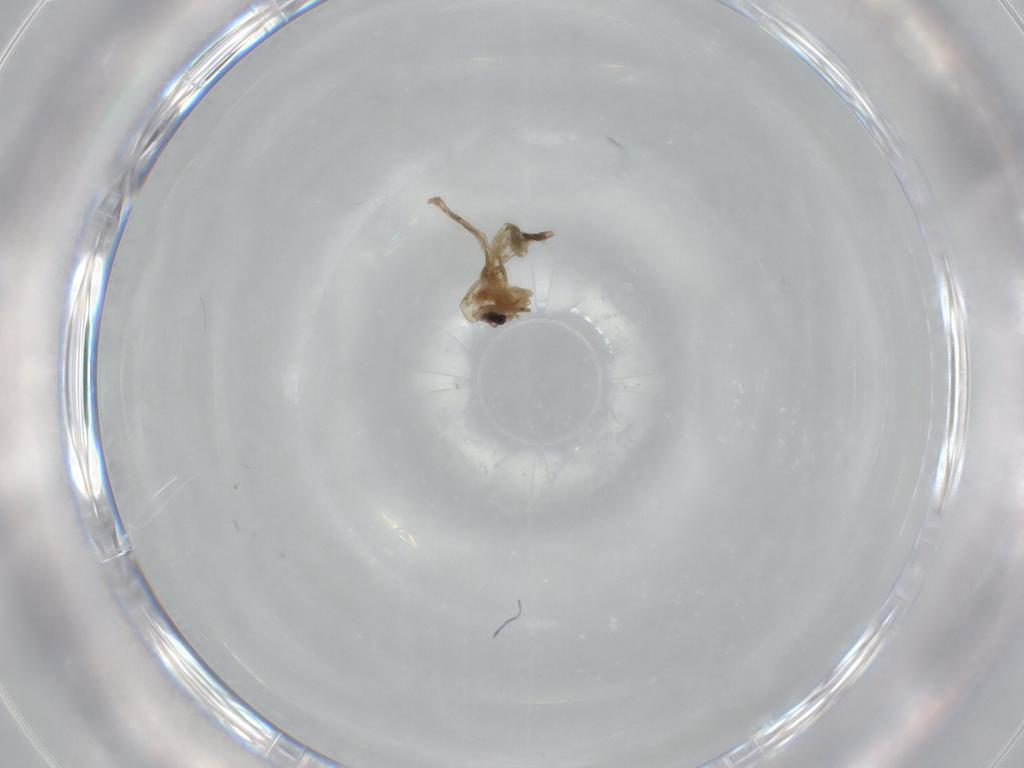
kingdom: Animalia
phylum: Arthropoda
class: Insecta
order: Diptera
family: Chironomidae
